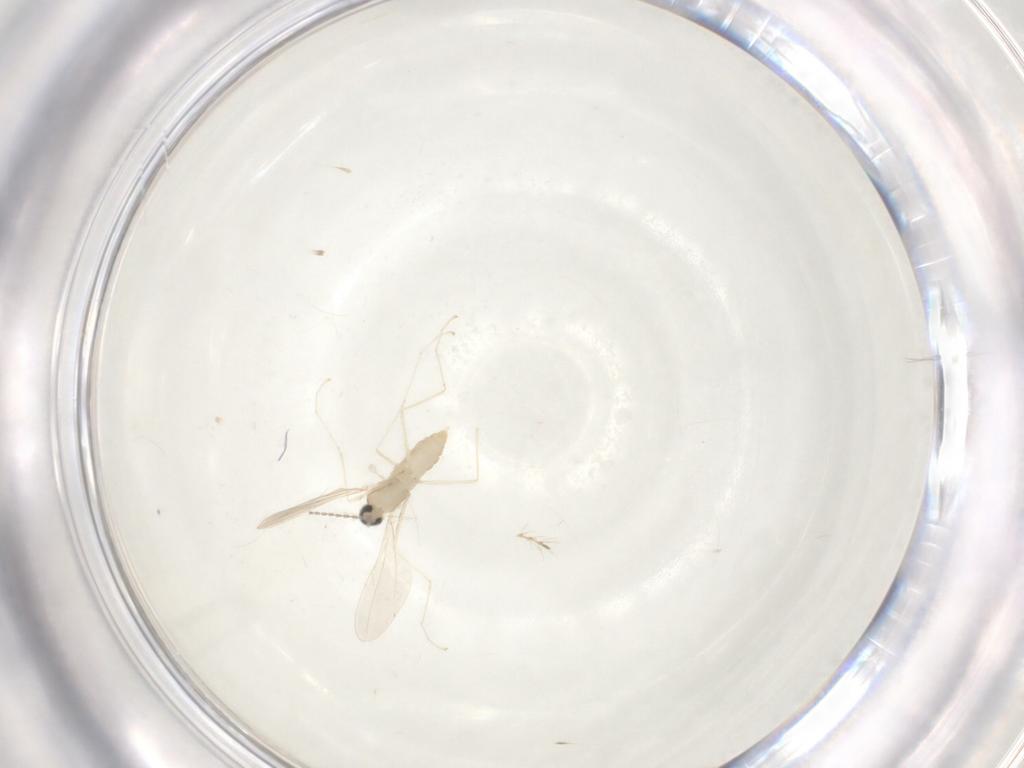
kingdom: Animalia
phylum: Arthropoda
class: Insecta
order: Diptera
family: Cecidomyiidae
